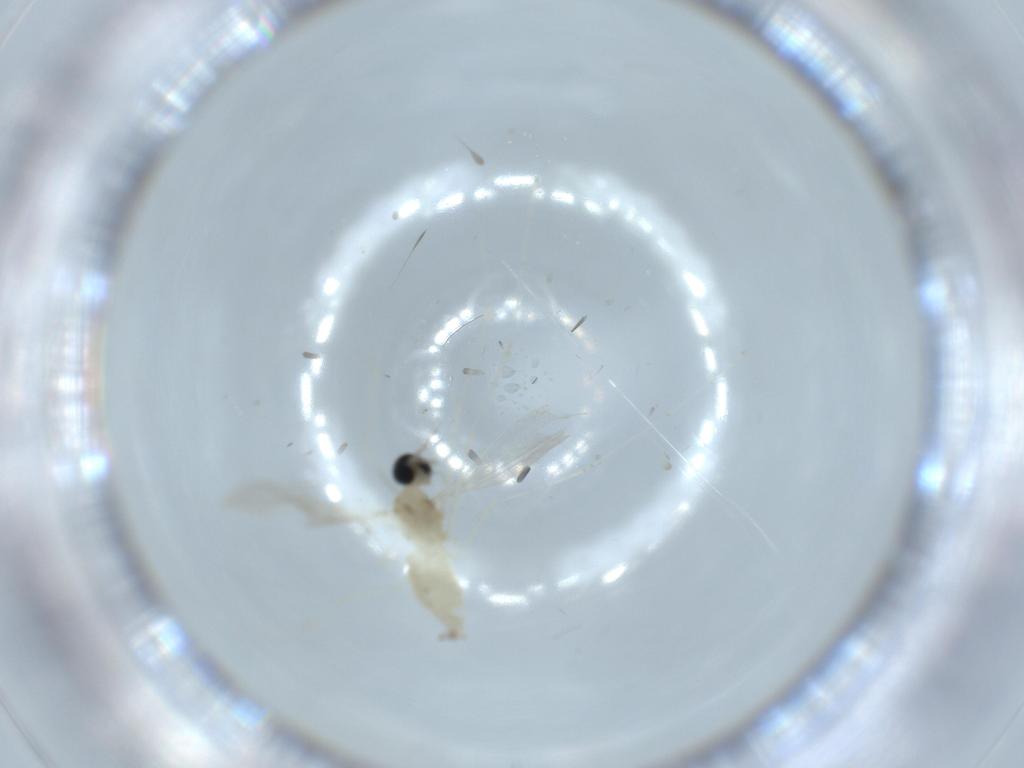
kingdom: Animalia
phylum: Arthropoda
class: Insecta
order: Diptera
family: Cecidomyiidae
